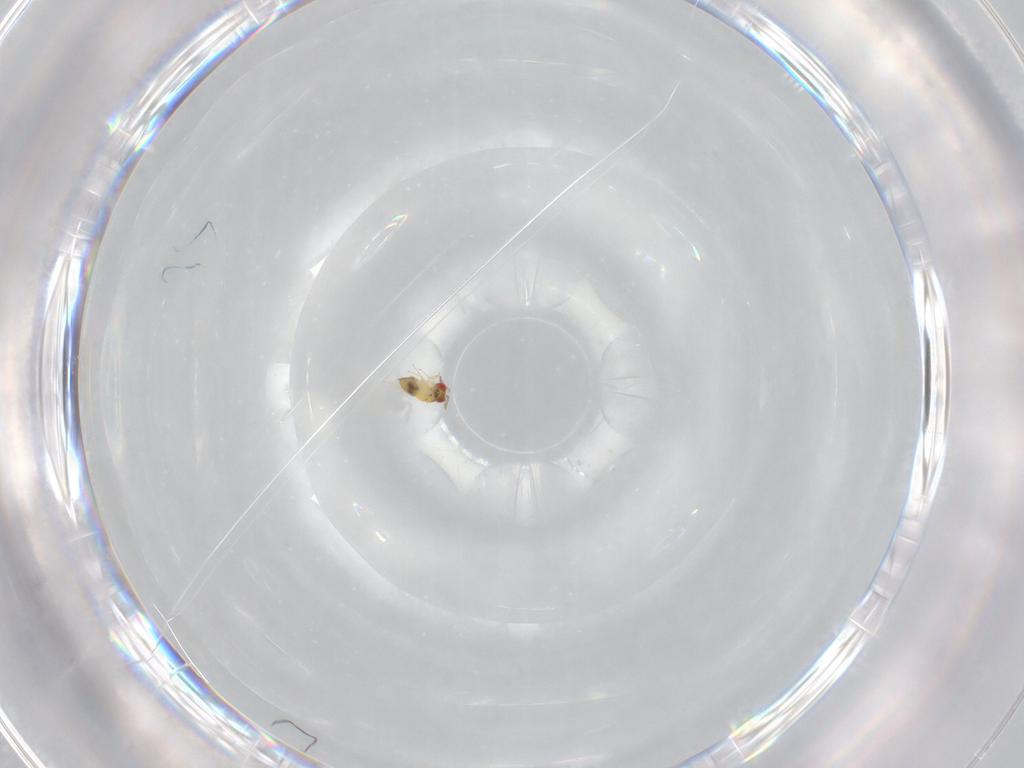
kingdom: Animalia
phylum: Arthropoda
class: Insecta
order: Hymenoptera
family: Trichogrammatidae
